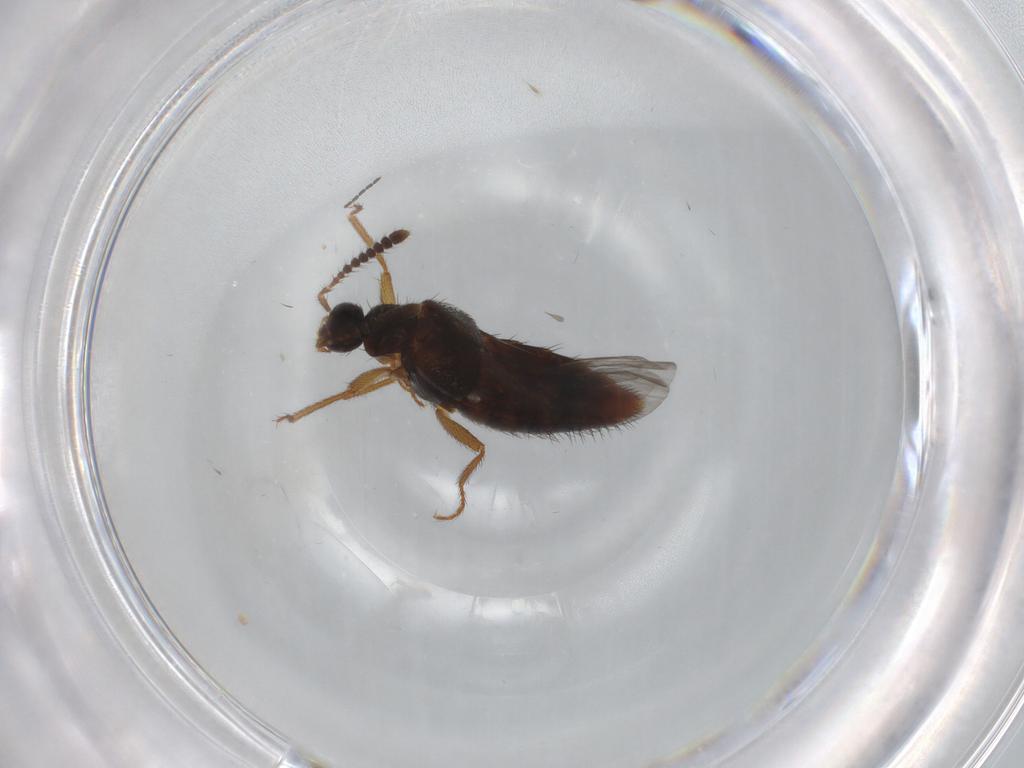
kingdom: Animalia
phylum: Arthropoda
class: Insecta
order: Coleoptera
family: Staphylinidae
